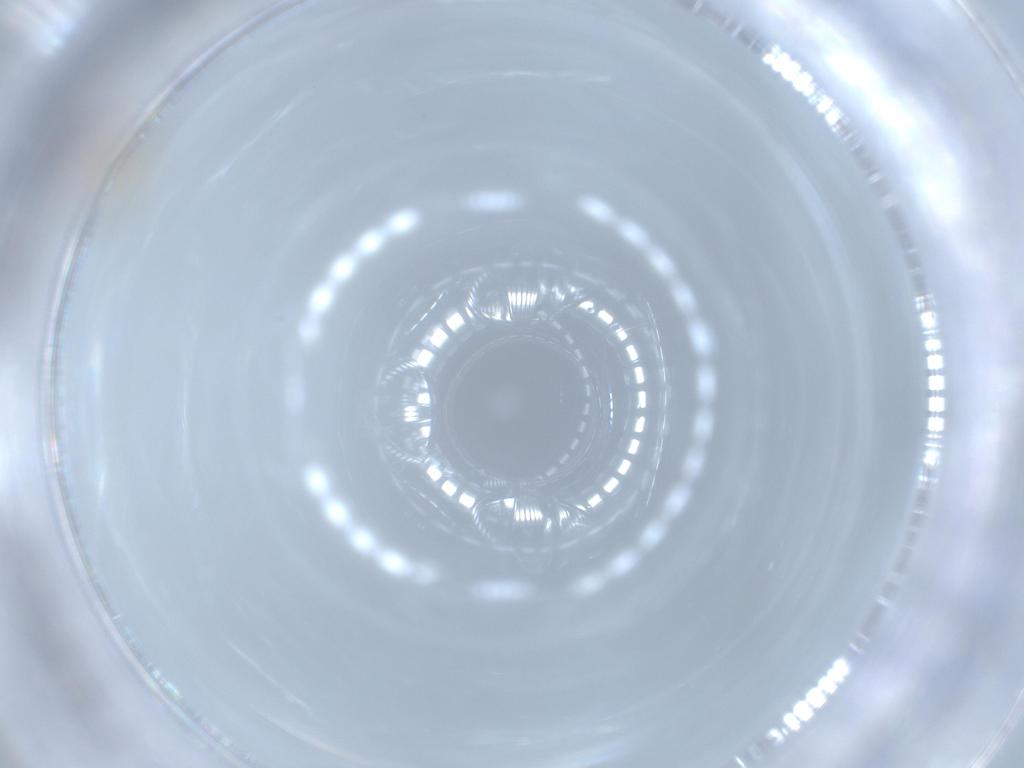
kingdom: Animalia
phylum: Arthropoda
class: Arachnida
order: Trombidiformes
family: Erythraeidae
